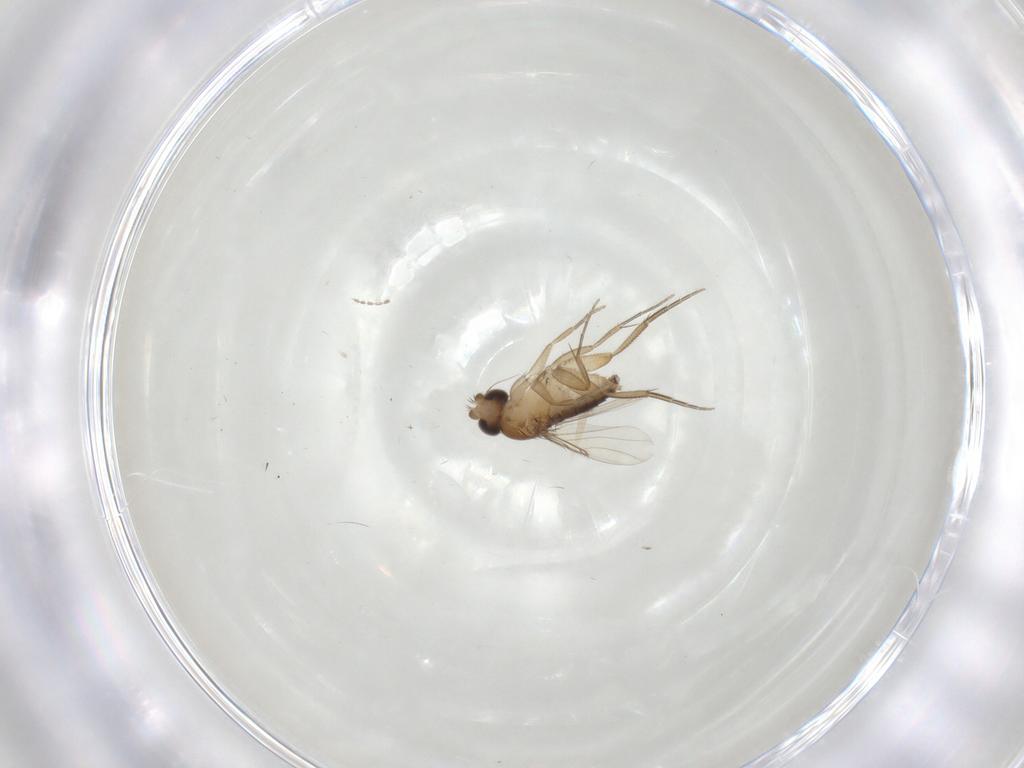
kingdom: Animalia
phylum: Arthropoda
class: Insecta
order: Diptera
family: Phoridae
